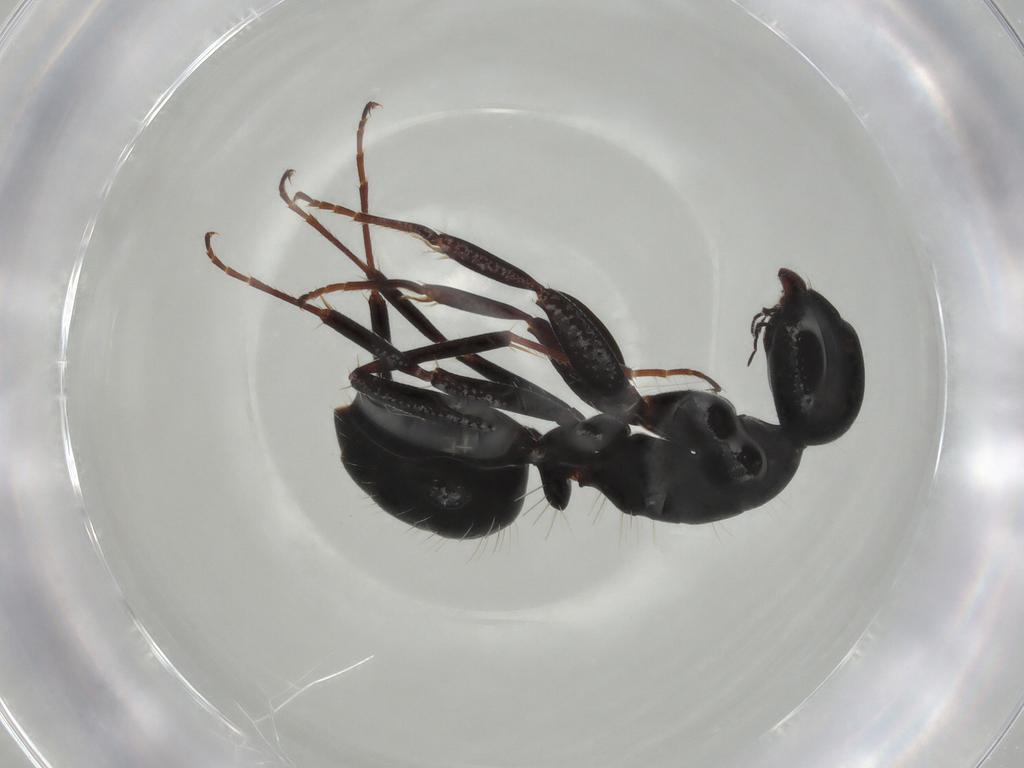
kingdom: Animalia
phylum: Arthropoda
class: Insecta
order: Hymenoptera
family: Formicidae
